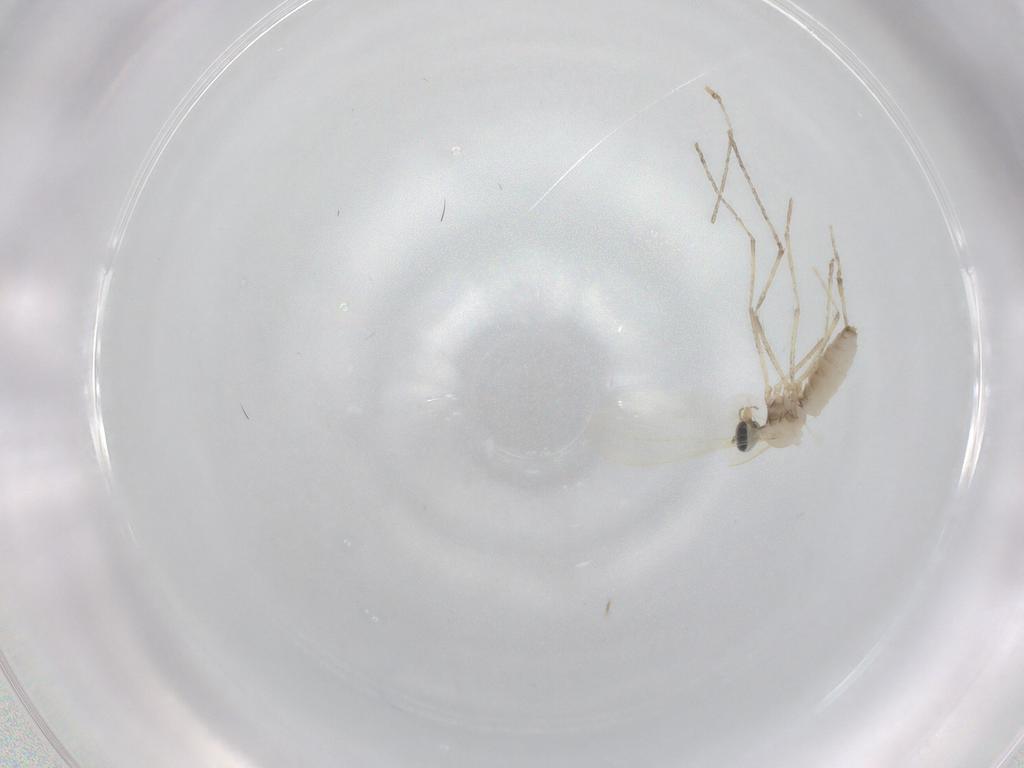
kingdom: Animalia
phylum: Arthropoda
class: Insecta
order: Diptera
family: Cecidomyiidae
